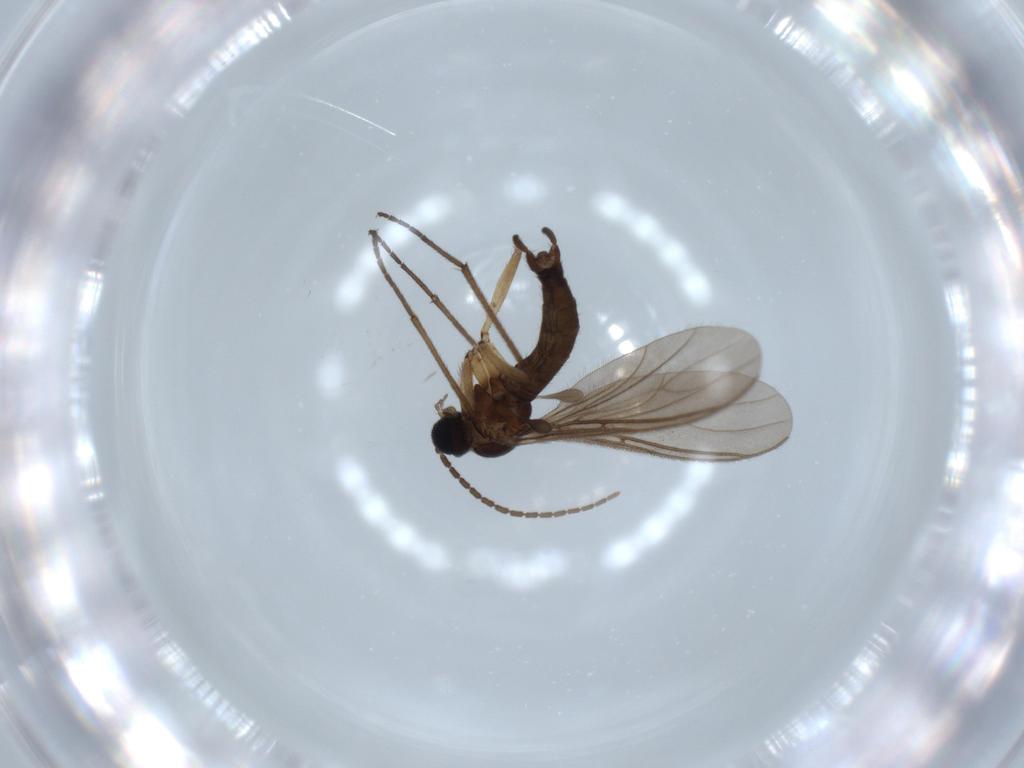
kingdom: Animalia
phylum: Arthropoda
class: Insecta
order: Diptera
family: Sciaridae
